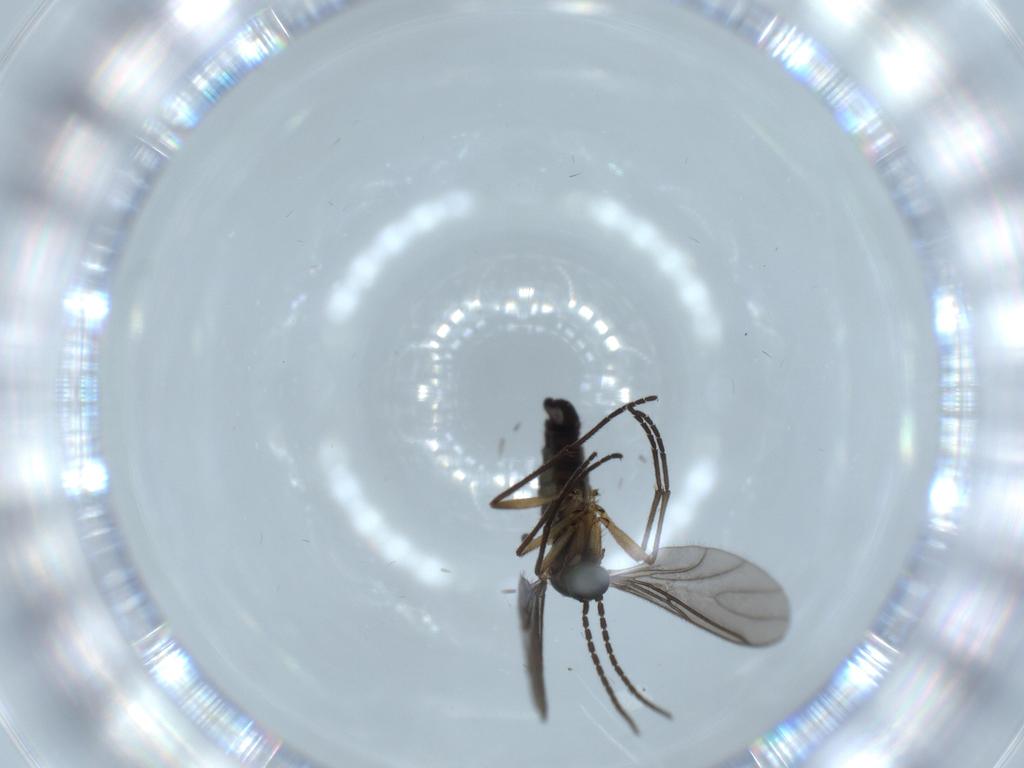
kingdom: Animalia
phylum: Arthropoda
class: Insecta
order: Diptera
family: Sciaridae
